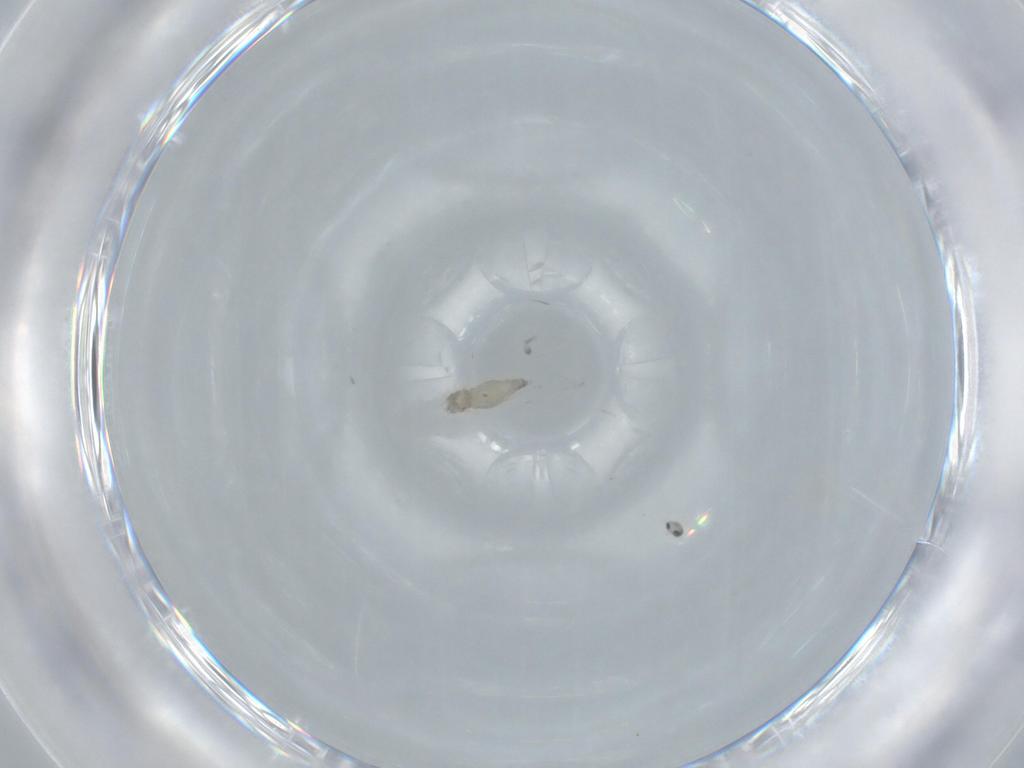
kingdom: Animalia
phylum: Arthropoda
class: Insecta
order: Diptera
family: Cecidomyiidae
